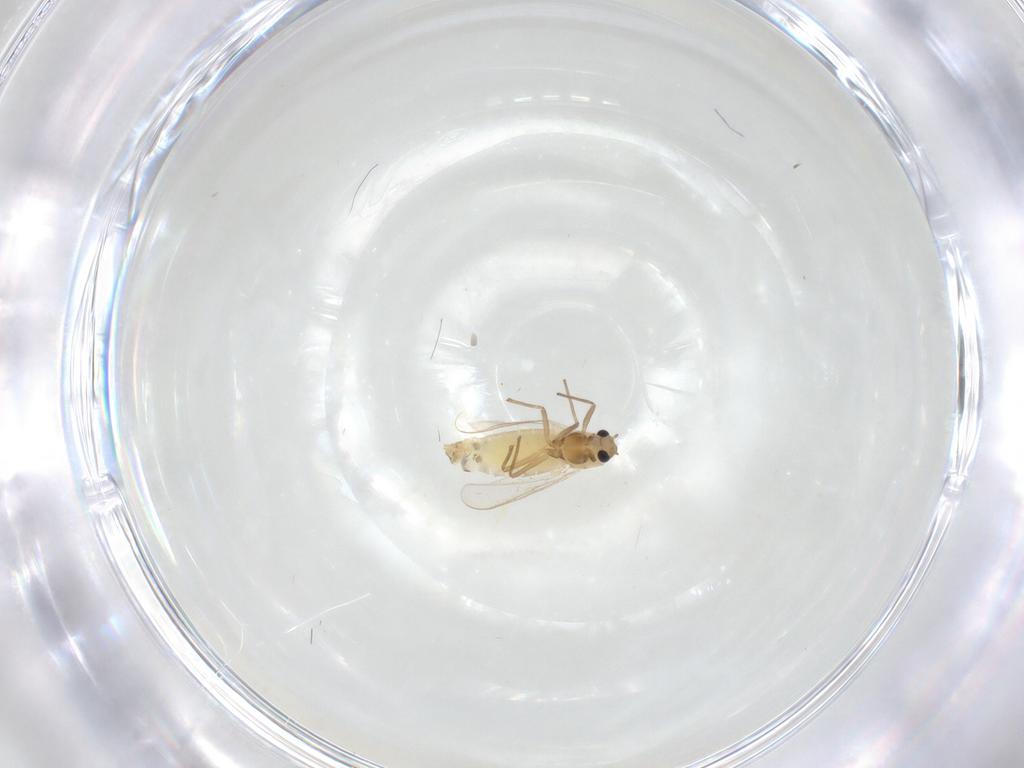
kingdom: Animalia
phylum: Arthropoda
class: Insecta
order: Diptera
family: Chironomidae
